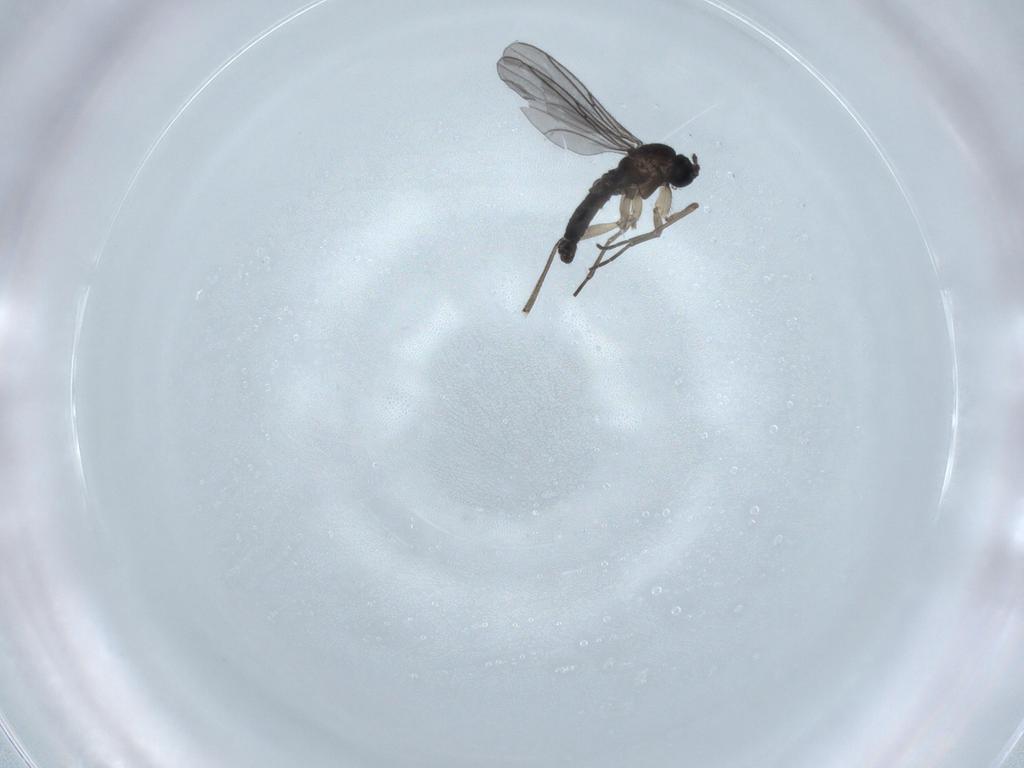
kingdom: Animalia
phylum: Arthropoda
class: Insecta
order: Diptera
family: Sciaridae
